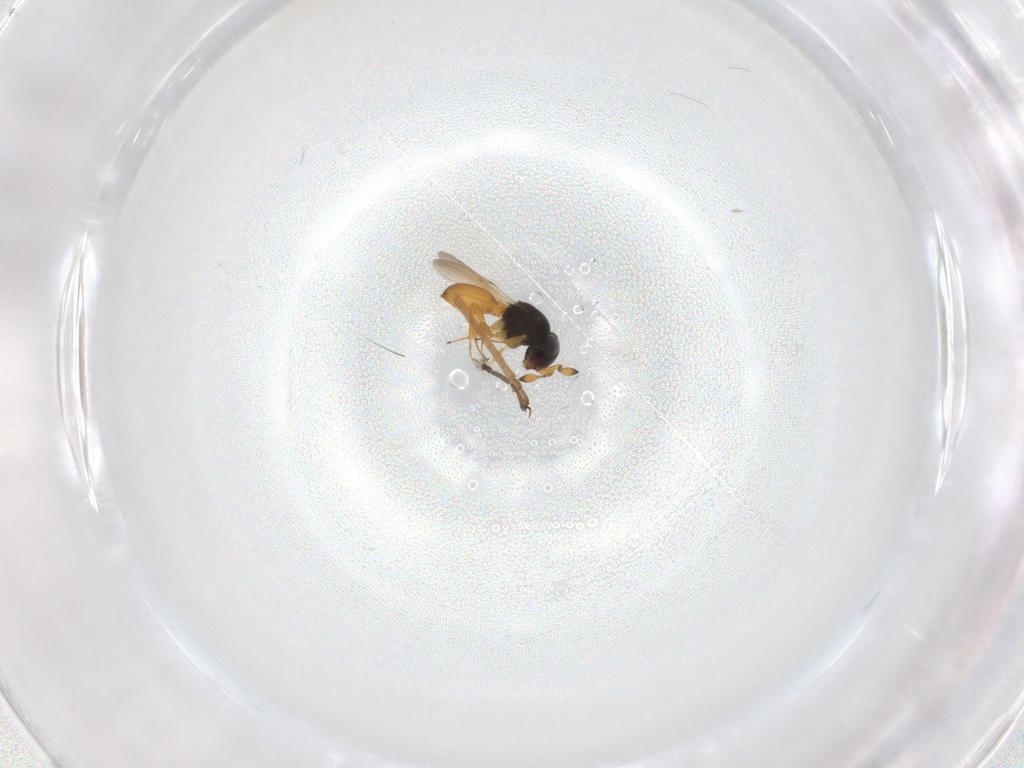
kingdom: Animalia
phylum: Arthropoda
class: Insecta
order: Hymenoptera
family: Scelionidae
